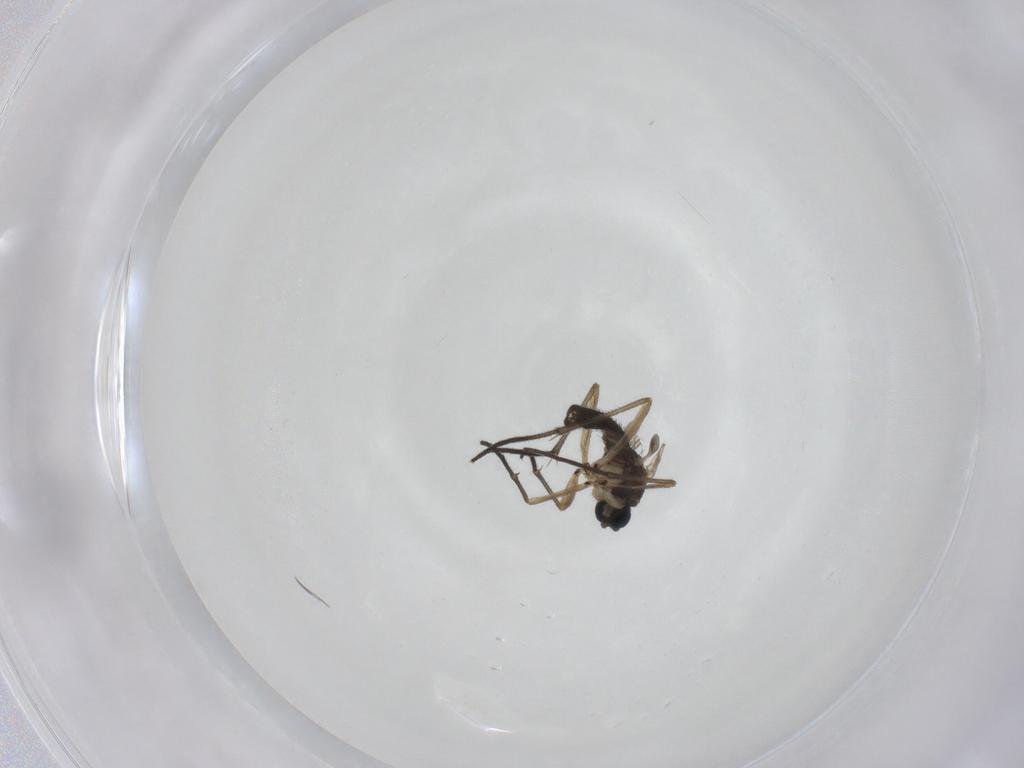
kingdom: Animalia
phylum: Arthropoda
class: Insecta
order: Diptera
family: Sciaridae
